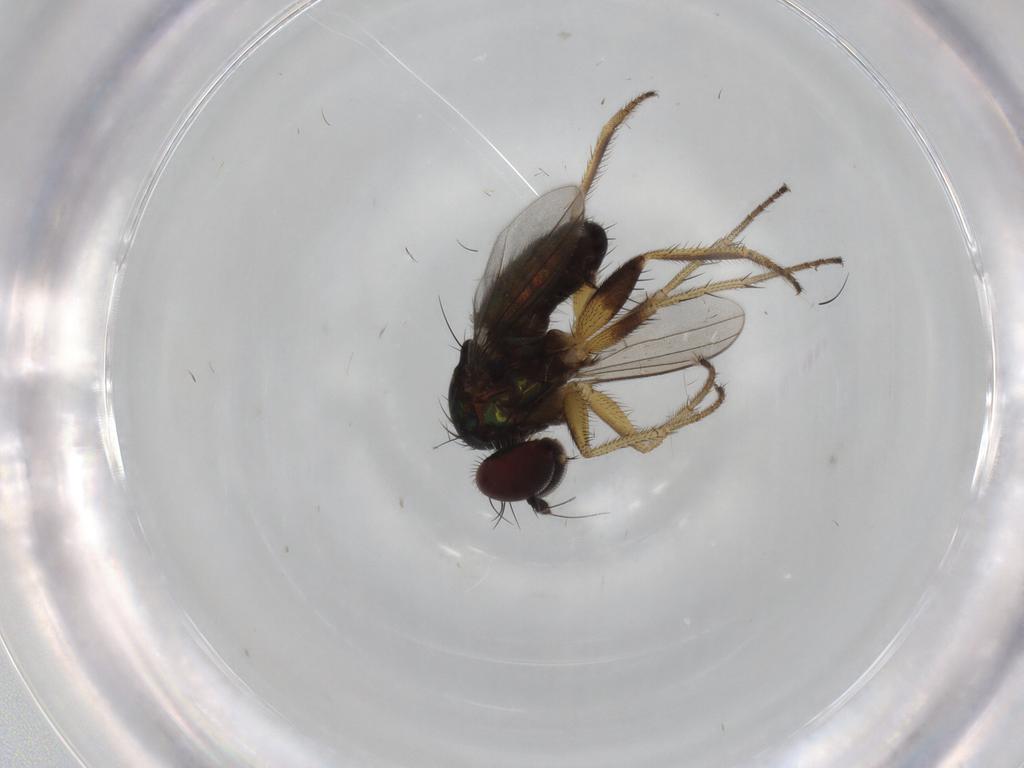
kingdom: Animalia
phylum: Arthropoda
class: Insecta
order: Diptera
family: Dolichopodidae
